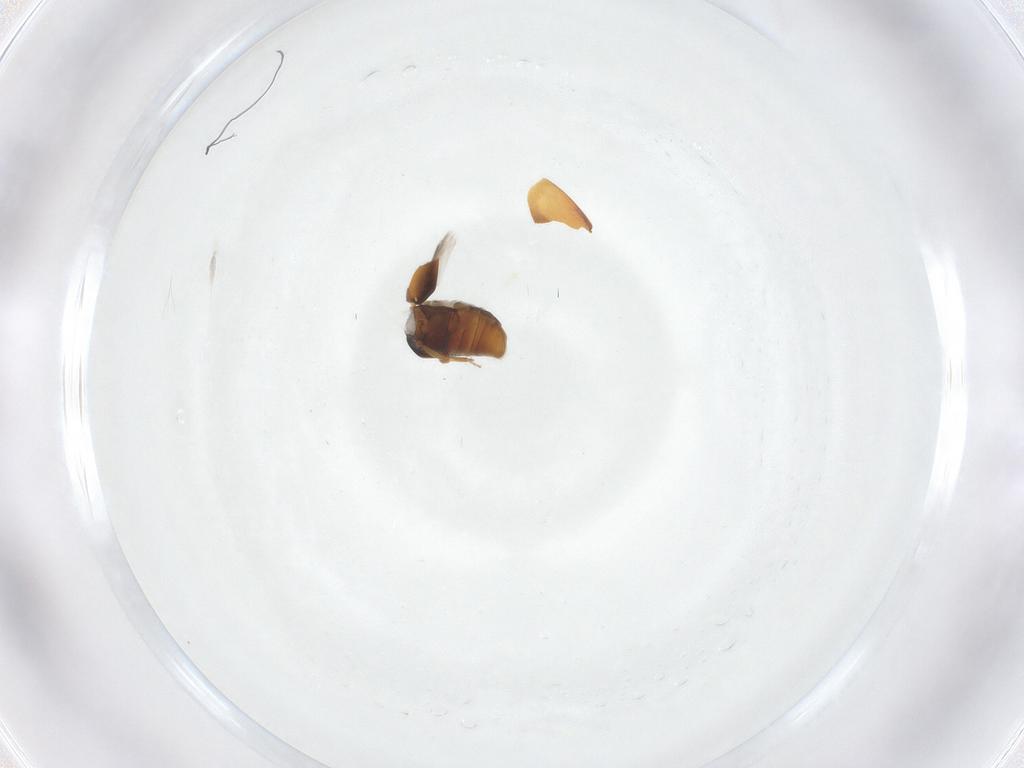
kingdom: Animalia
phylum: Arthropoda
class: Insecta
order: Coleoptera
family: Corylophidae
